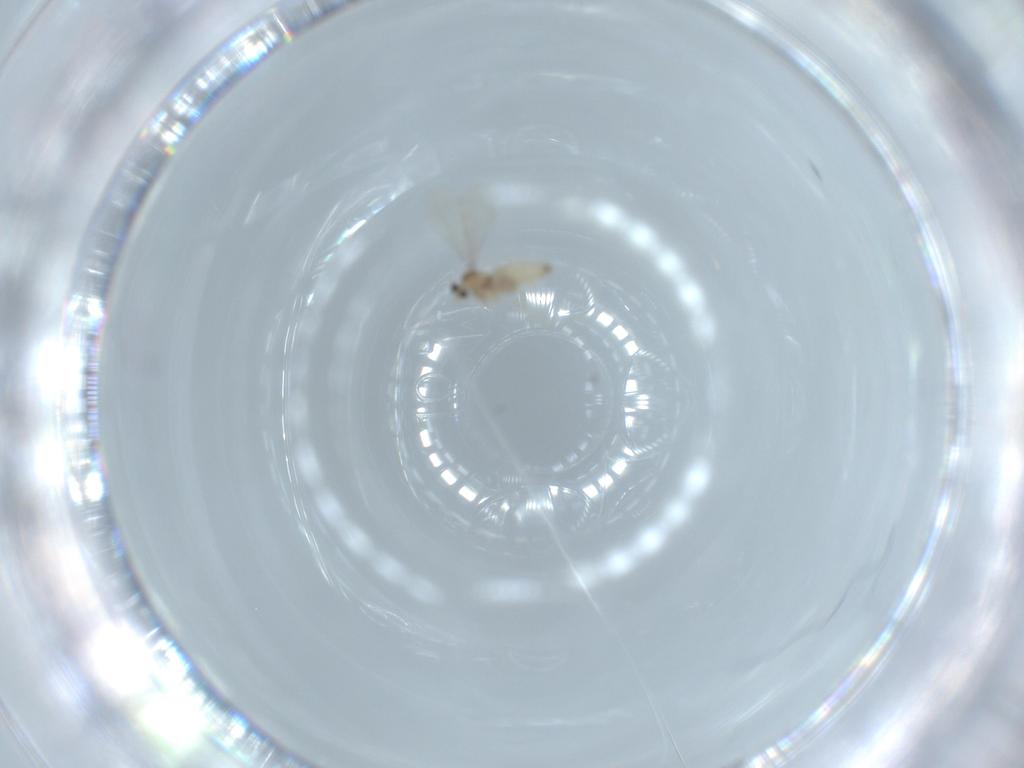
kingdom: Animalia
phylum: Arthropoda
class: Insecta
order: Diptera
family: Cecidomyiidae
